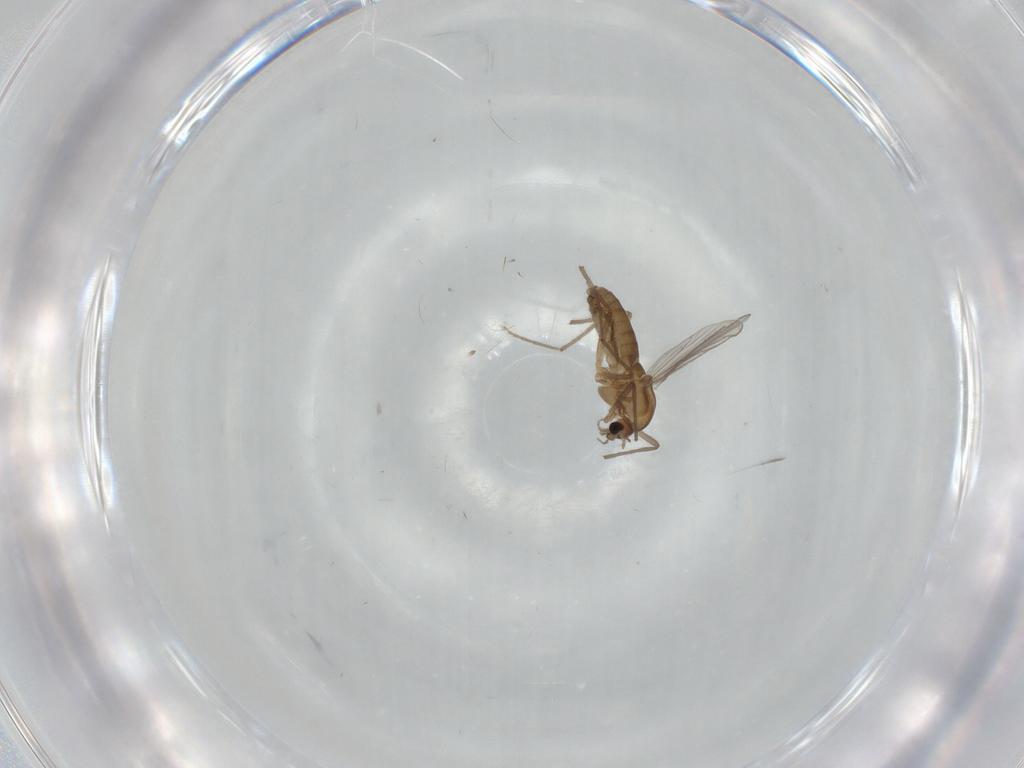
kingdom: Animalia
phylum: Arthropoda
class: Insecta
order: Diptera
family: Chironomidae
